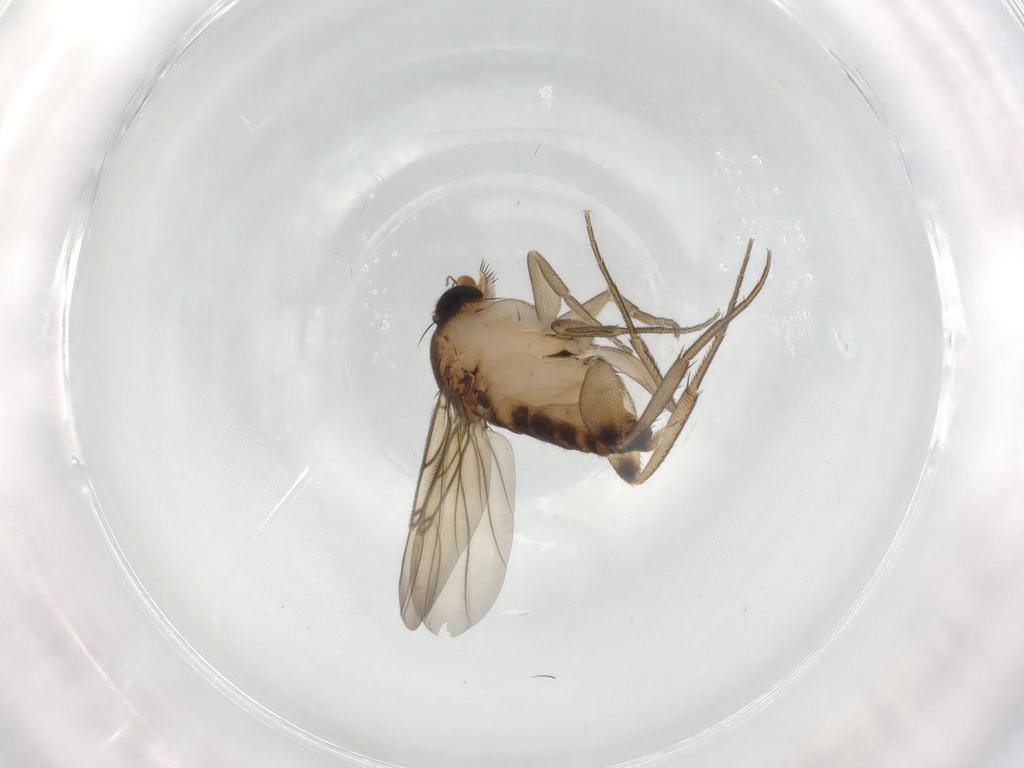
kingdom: Animalia
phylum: Arthropoda
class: Insecta
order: Diptera
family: Phoridae
